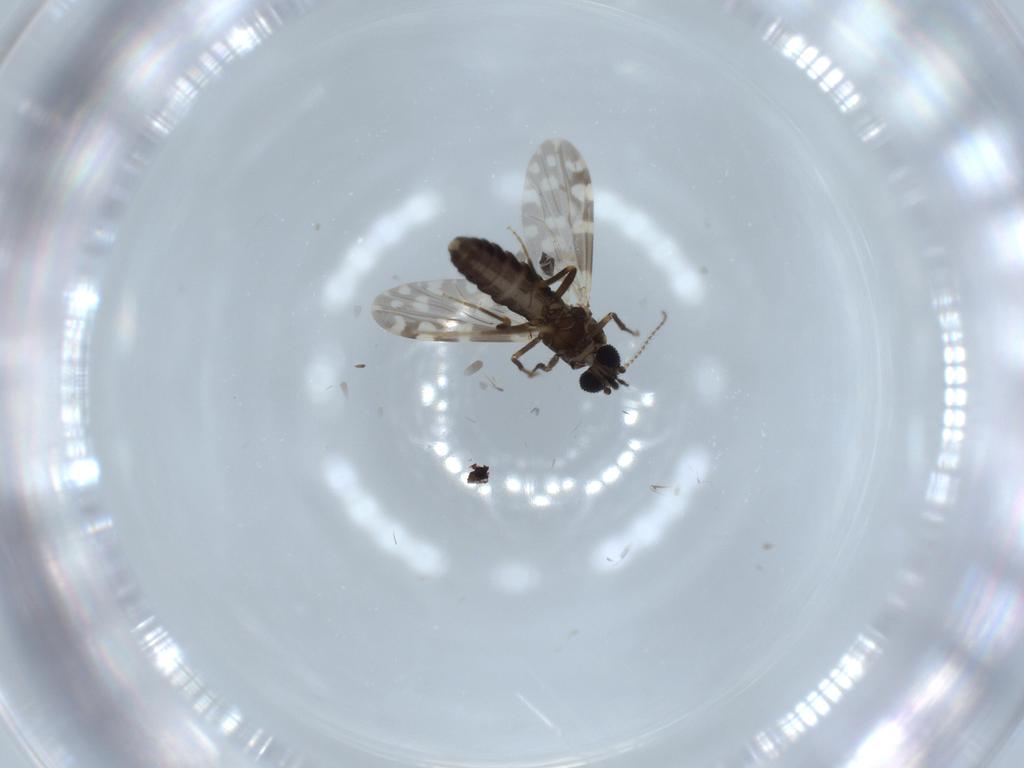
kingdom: Animalia
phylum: Arthropoda
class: Insecta
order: Diptera
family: Ceratopogonidae
